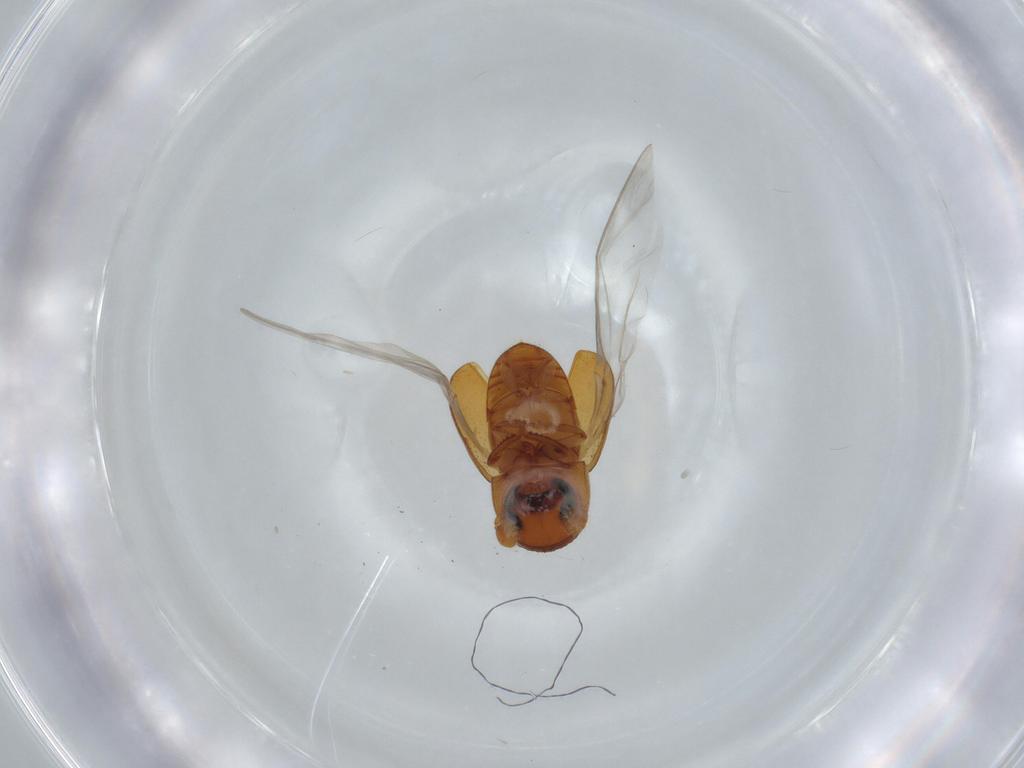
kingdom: Animalia
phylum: Arthropoda
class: Insecta
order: Coleoptera
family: Curculionidae
